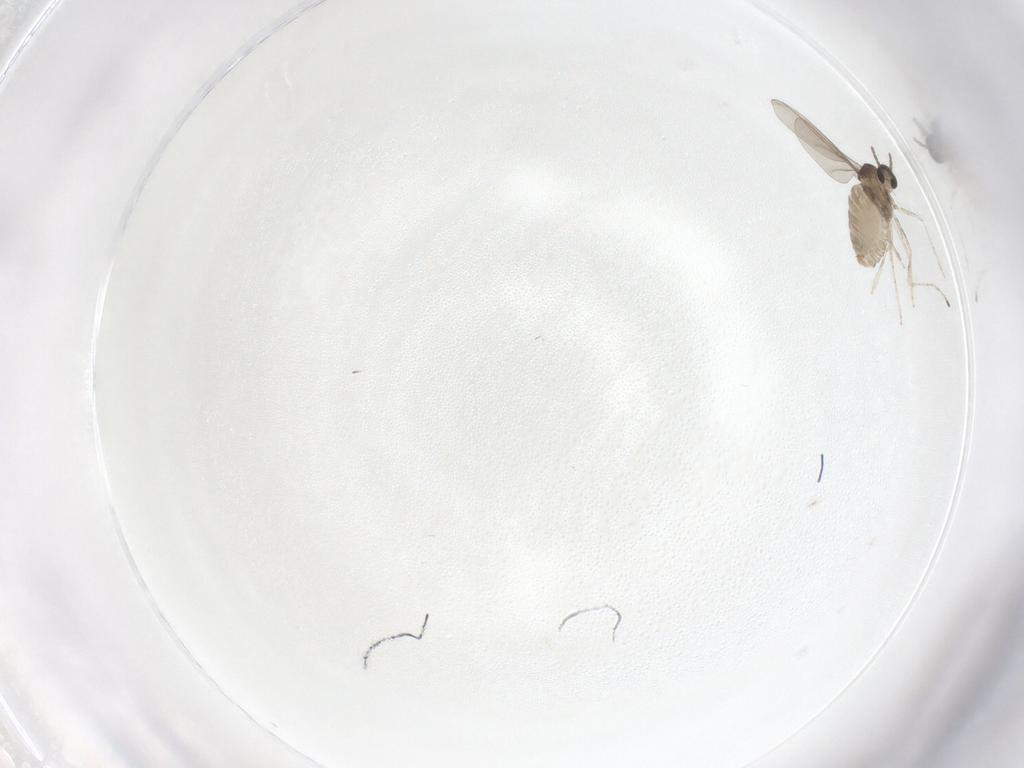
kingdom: Animalia
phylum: Arthropoda
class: Insecta
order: Diptera
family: Cecidomyiidae
